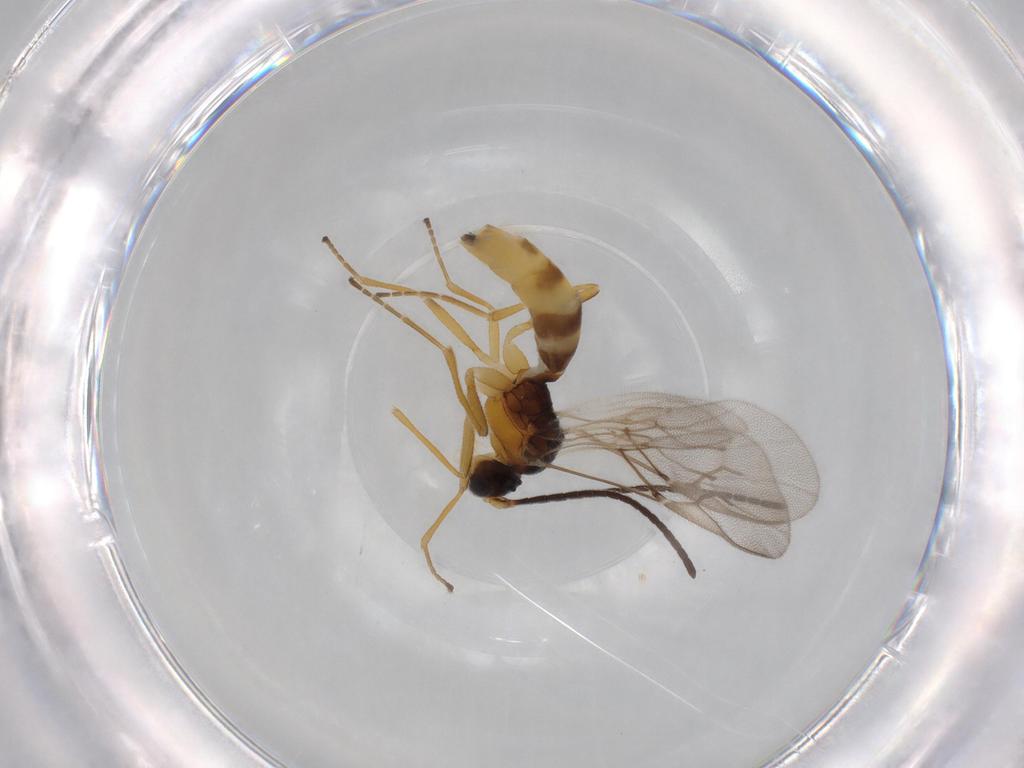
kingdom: Animalia
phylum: Arthropoda
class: Insecta
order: Hymenoptera
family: Braconidae
